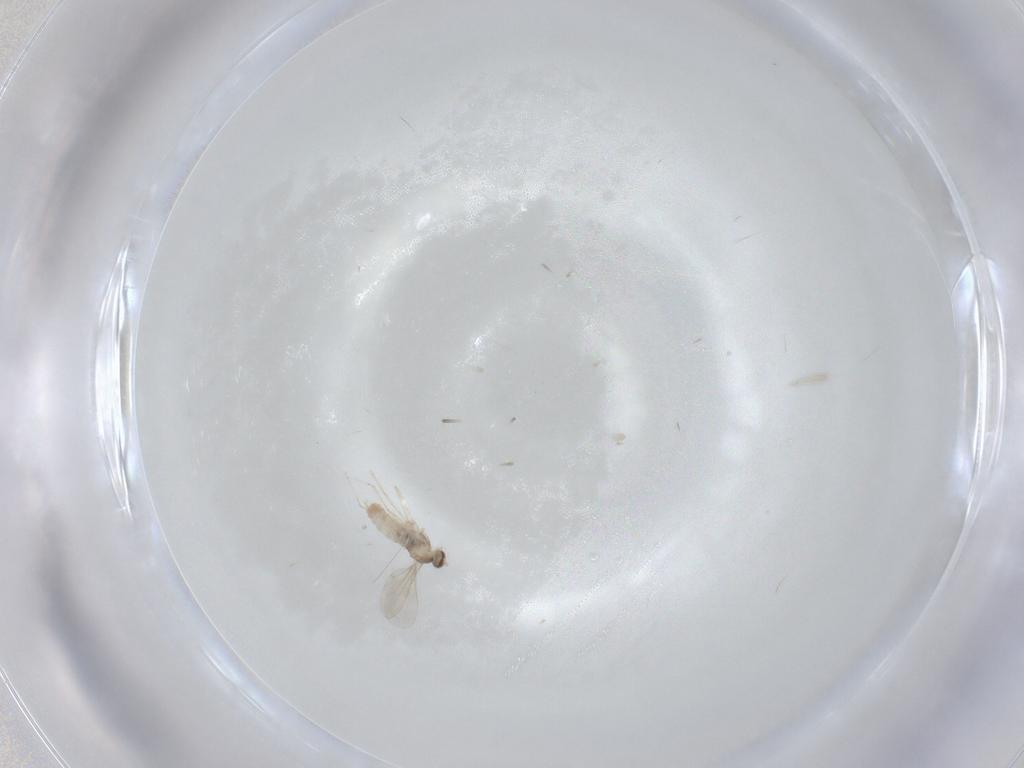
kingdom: Animalia
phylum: Arthropoda
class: Insecta
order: Diptera
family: Cecidomyiidae
